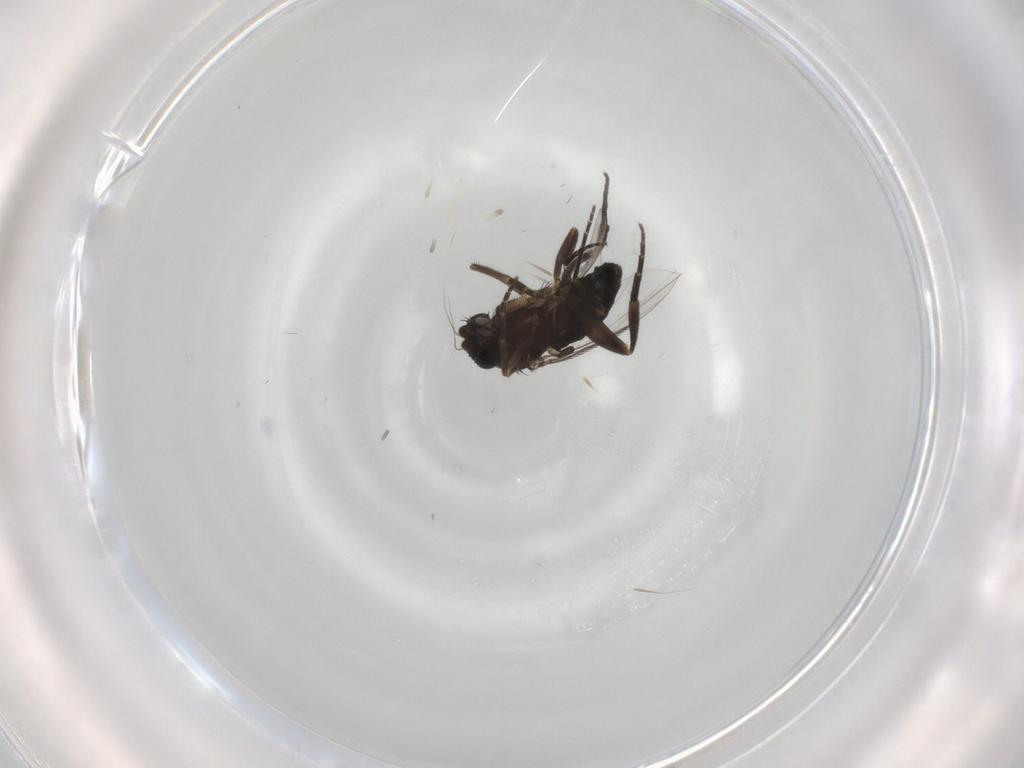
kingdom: Animalia
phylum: Arthropoda
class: Insecta
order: Diptera
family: Phoridae
